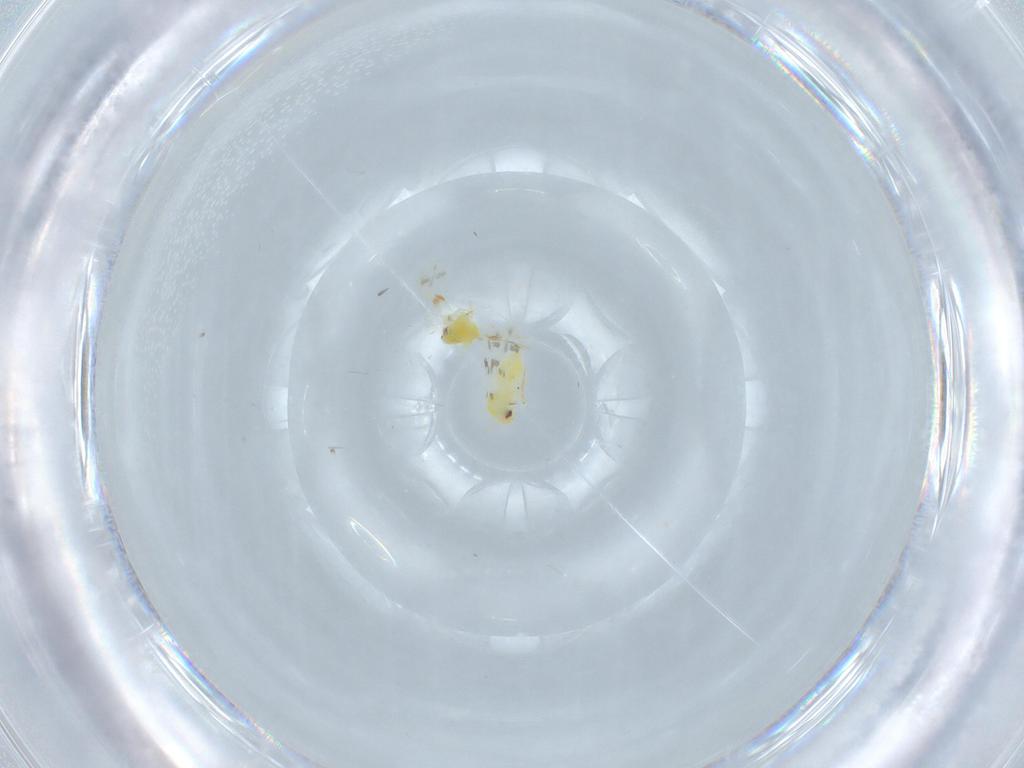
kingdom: Animalia
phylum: Arthropoda
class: Insecta
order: Hemiptera
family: Aleyrodidae
